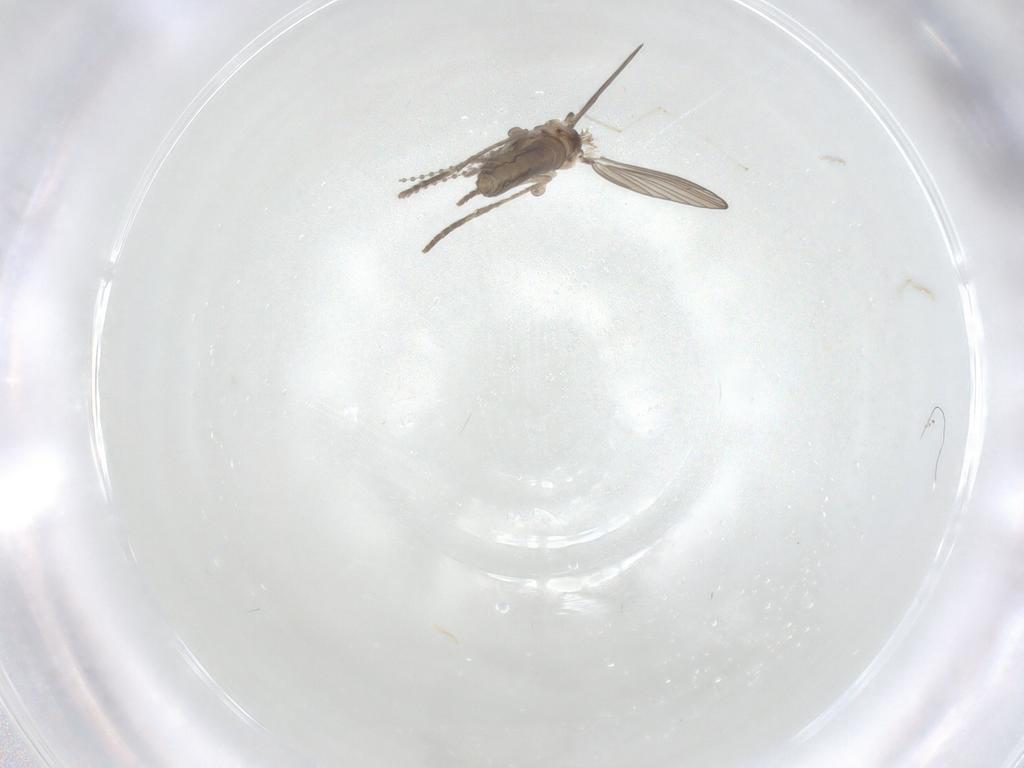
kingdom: Animalia
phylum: Arthropoda
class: Insecta
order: Diptera
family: Psychodidae
